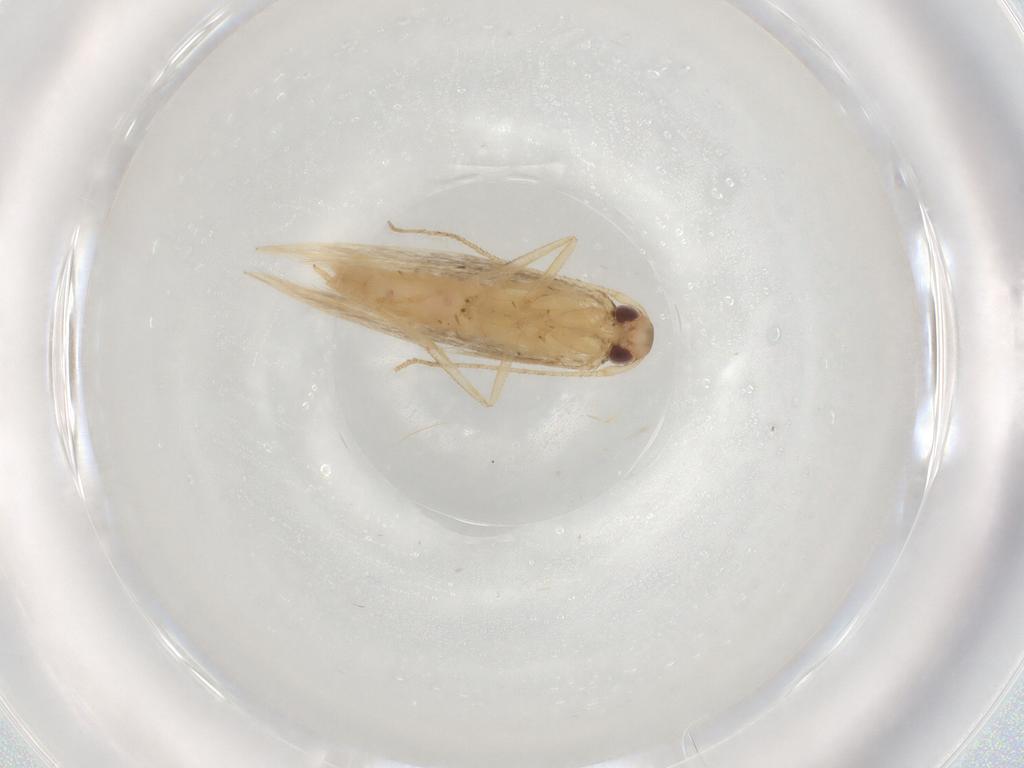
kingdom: Animalia
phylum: Arthropoda
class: Insecta
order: Lepidoptera
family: Cosmopterigidae
